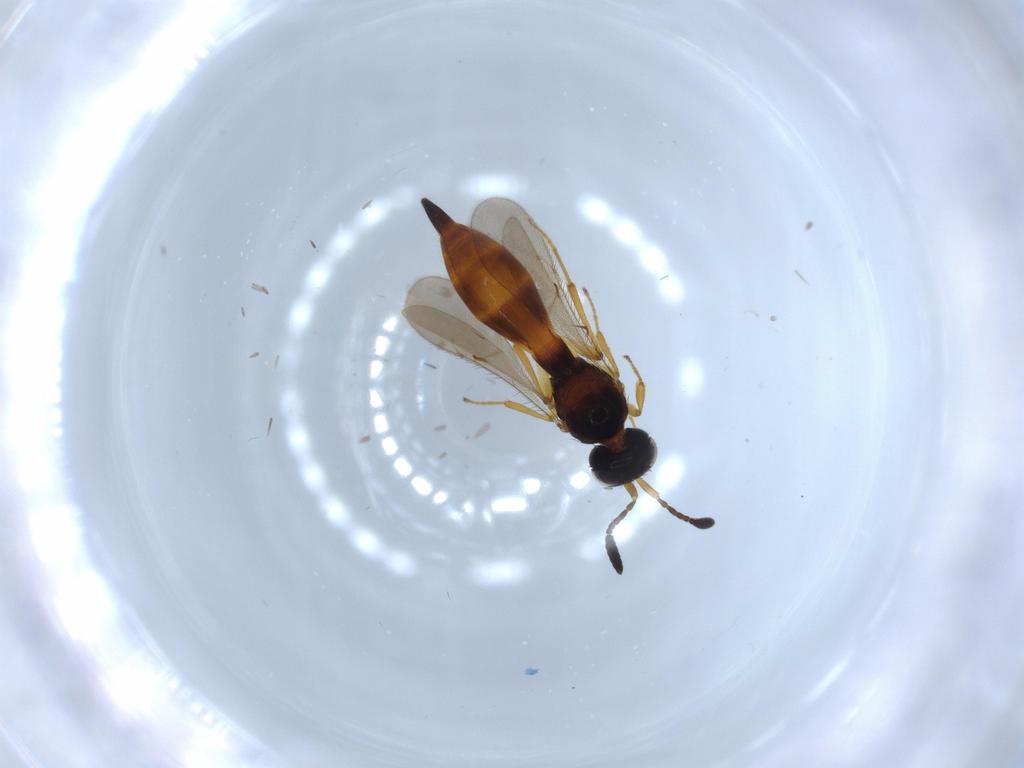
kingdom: Animalia
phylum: Arthropoda
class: Insecta
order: Hymenoptera
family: Scelionidae
